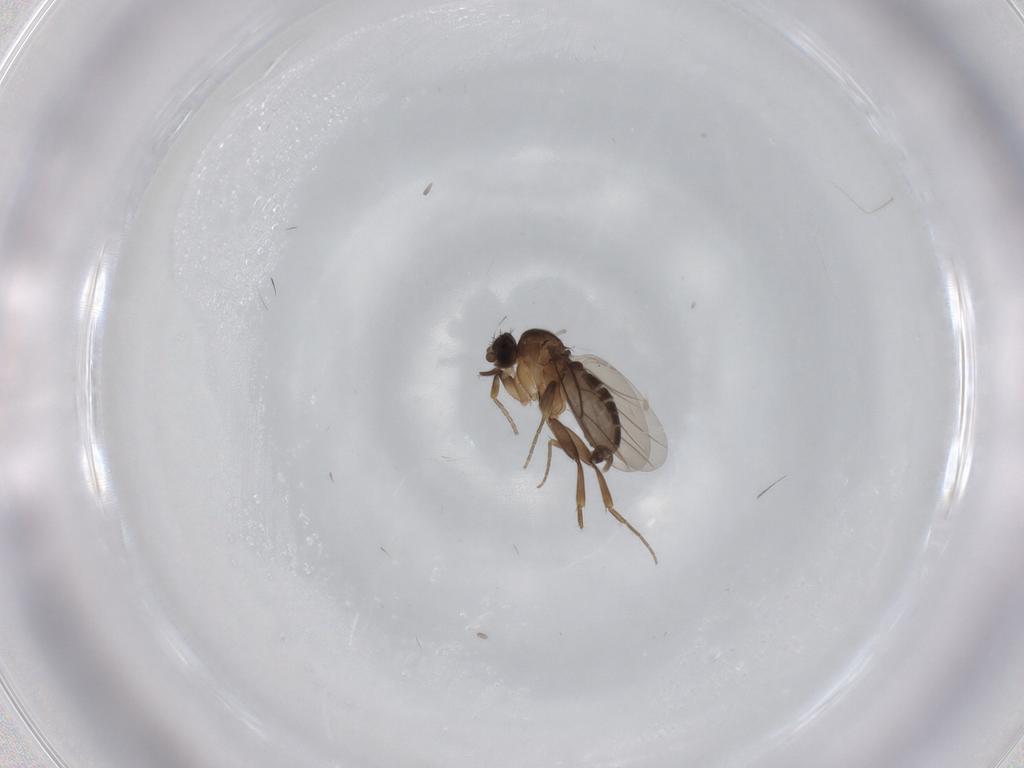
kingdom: Animalia
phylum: Arthropoda
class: Insecta
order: Diptera
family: Phoridae
